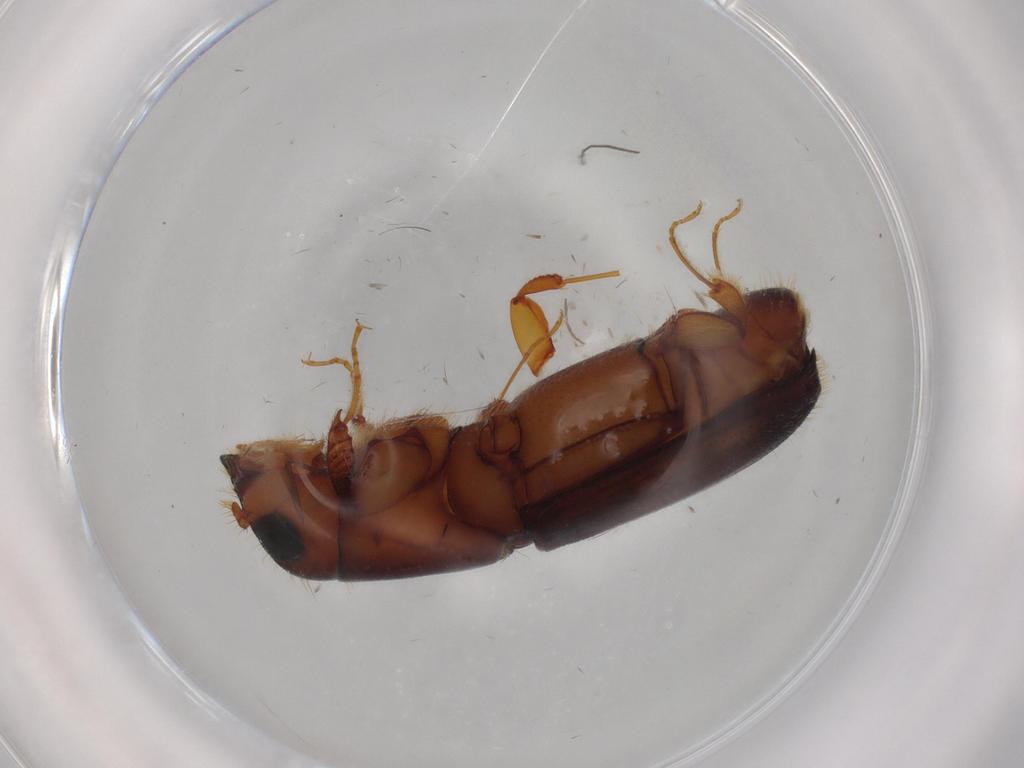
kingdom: Animalia
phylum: Arthropoda
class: Insecta
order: Coleoptera
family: Curculionidae
